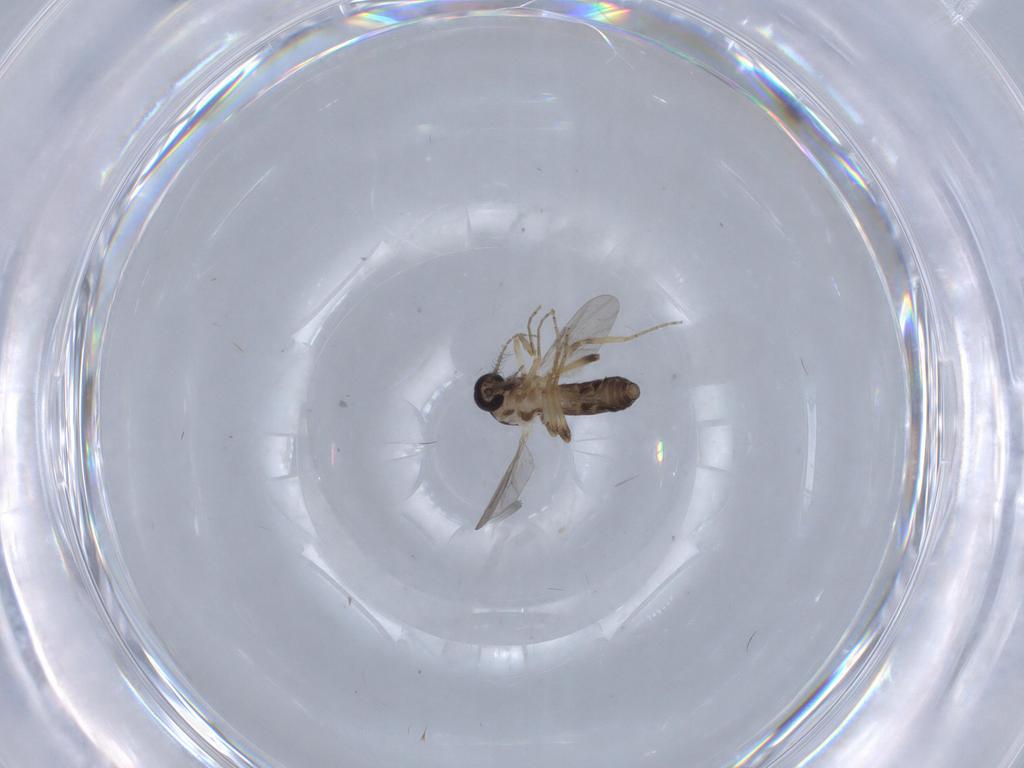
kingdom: Animalia
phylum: Arthropoda
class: Insecta
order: Diptera
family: Ceratopogonidae
